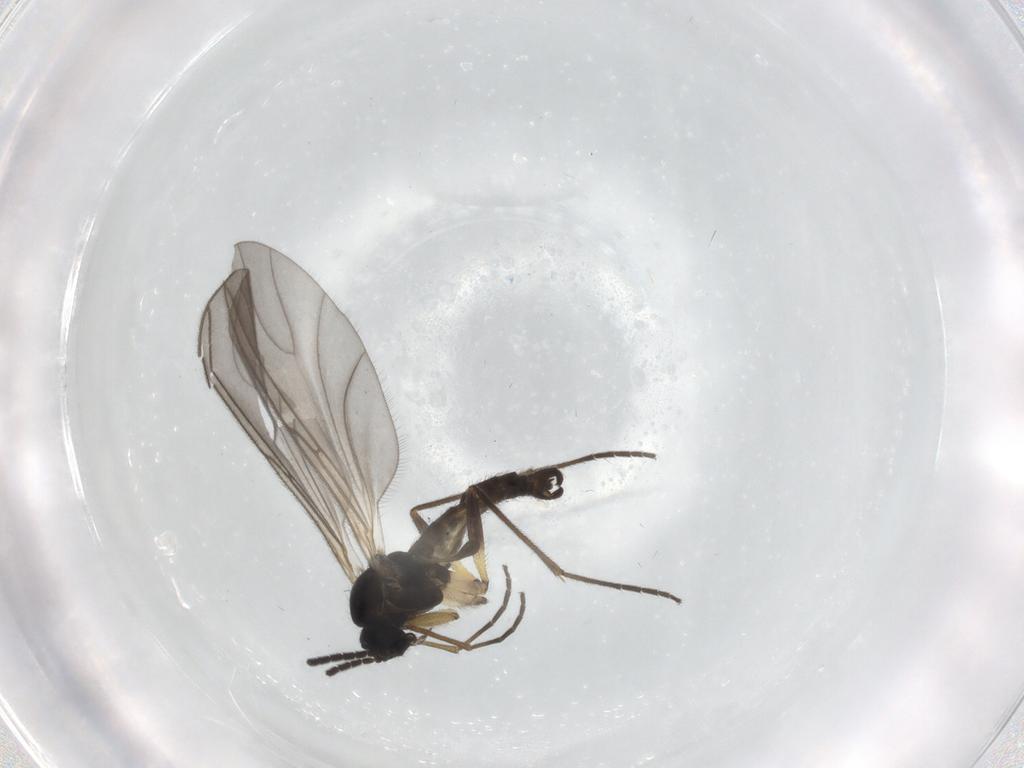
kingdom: Animalia
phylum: Arthropoda
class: Insecta
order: Diptera
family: Sciaridae
